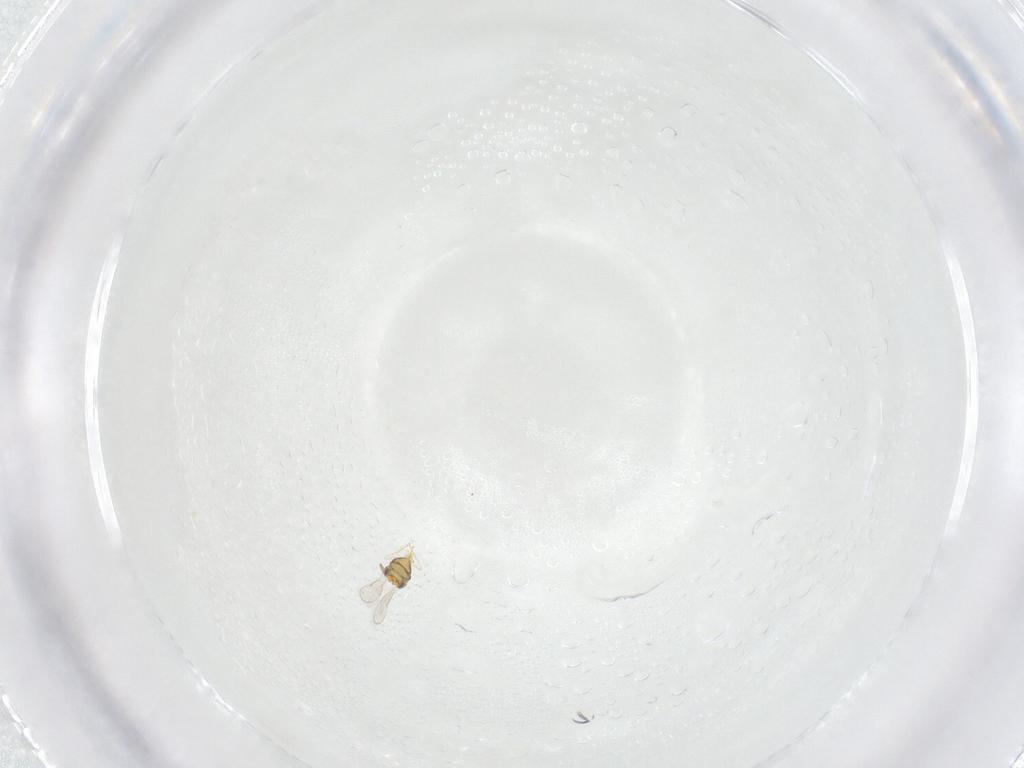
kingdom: Animalia
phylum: Arthropoda
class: Insecta
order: Hymenoptera
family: Aphelinidae
